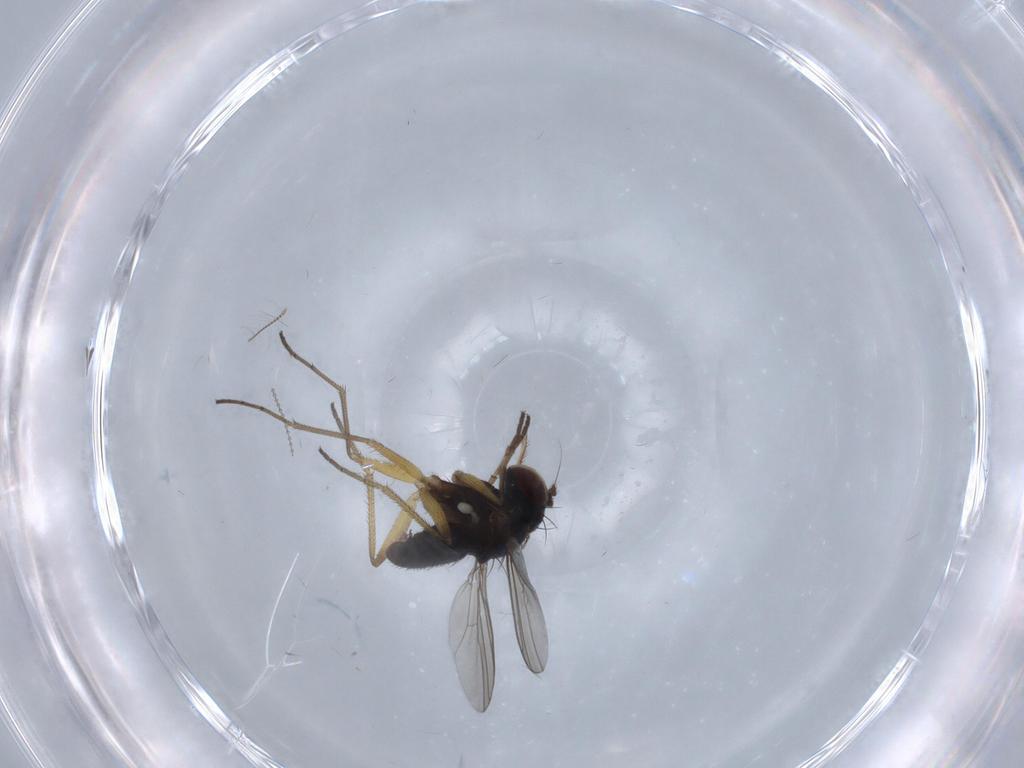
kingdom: Animalia
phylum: Arthropoda
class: Insecta
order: Diptera
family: Dolichopodidae
